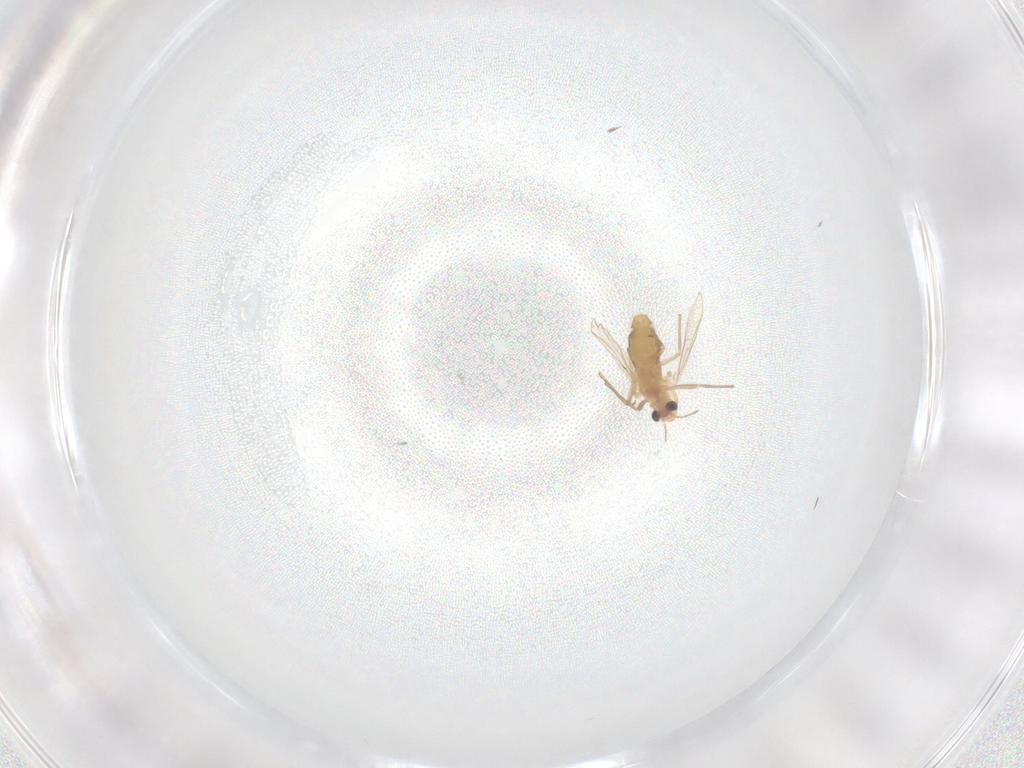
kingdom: Animalia
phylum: Arthropoda
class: Insecta
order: Diptera
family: Chironomidae
